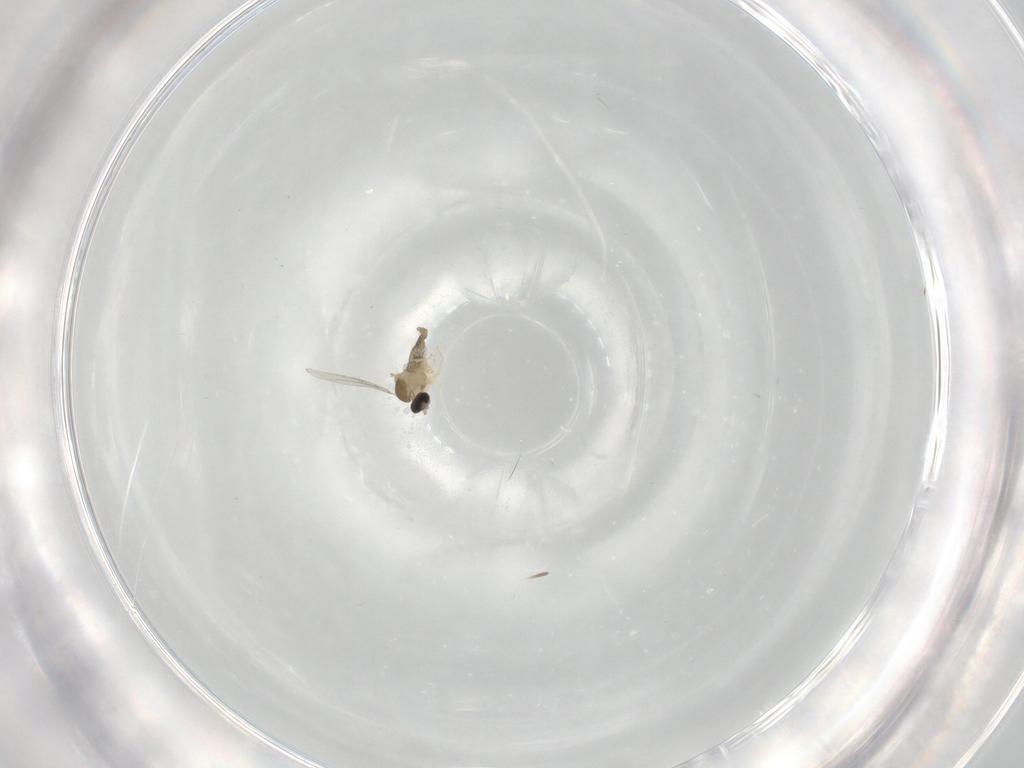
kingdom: Animalia
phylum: Arthropoda
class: Insecta
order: Diptera
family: Cecidomyiidae
